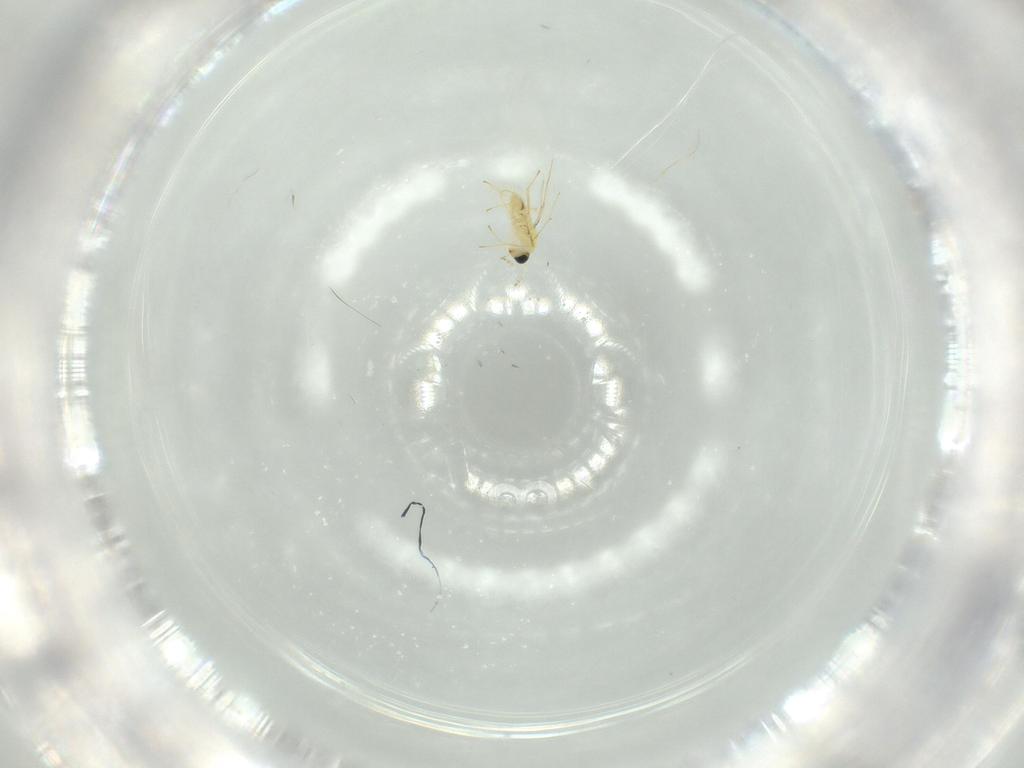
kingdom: Animalia
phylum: Arthropoda
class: Insecta
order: Hymenoptera
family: Trichogrammatidae
